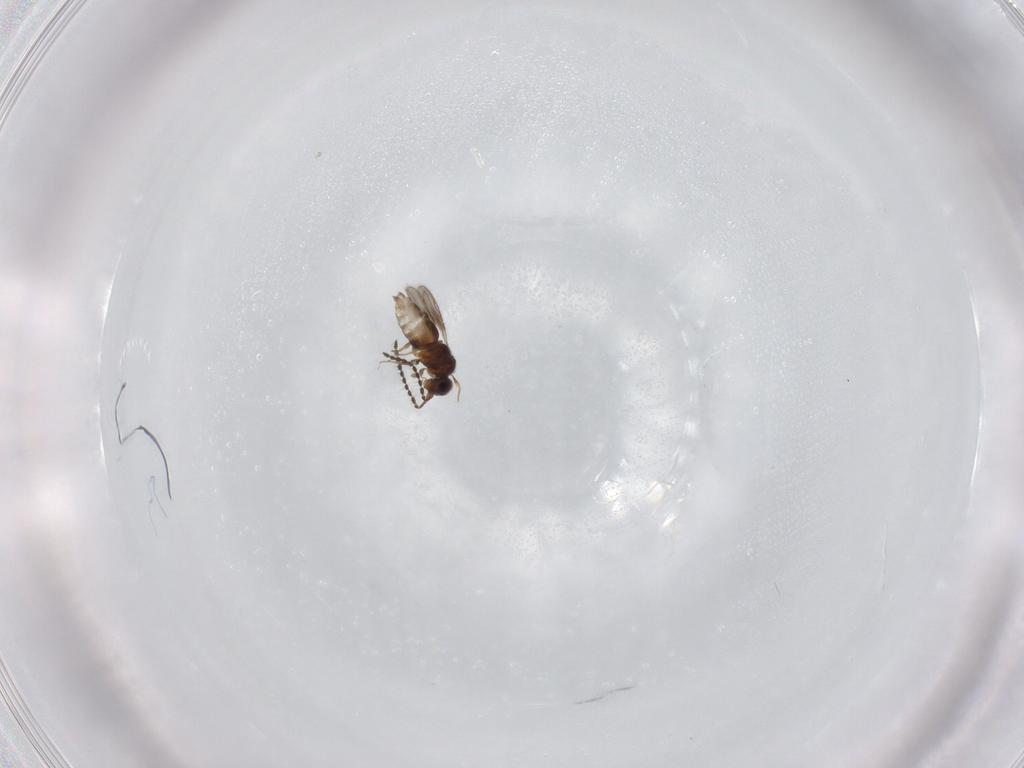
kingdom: Animalia
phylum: Arthropoda
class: Insecta
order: Hymenoptera
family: Ceraphronidae
